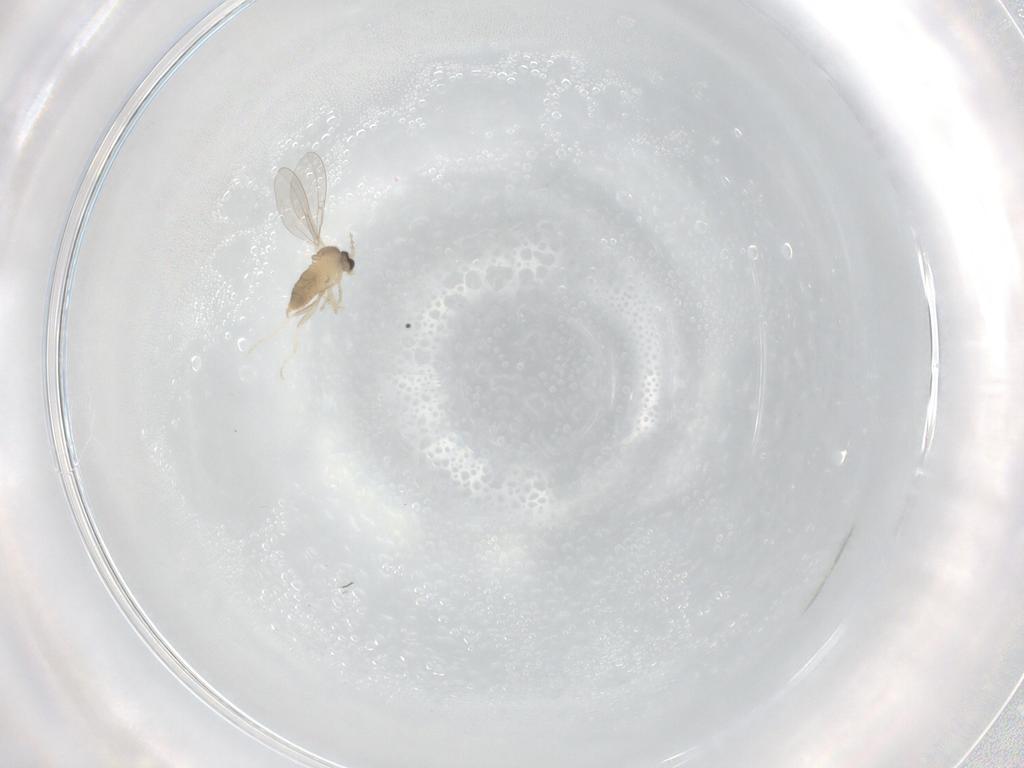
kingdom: Animalia
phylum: Arthropoda
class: Insecta
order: Diptera
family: Cecidomyiidae
